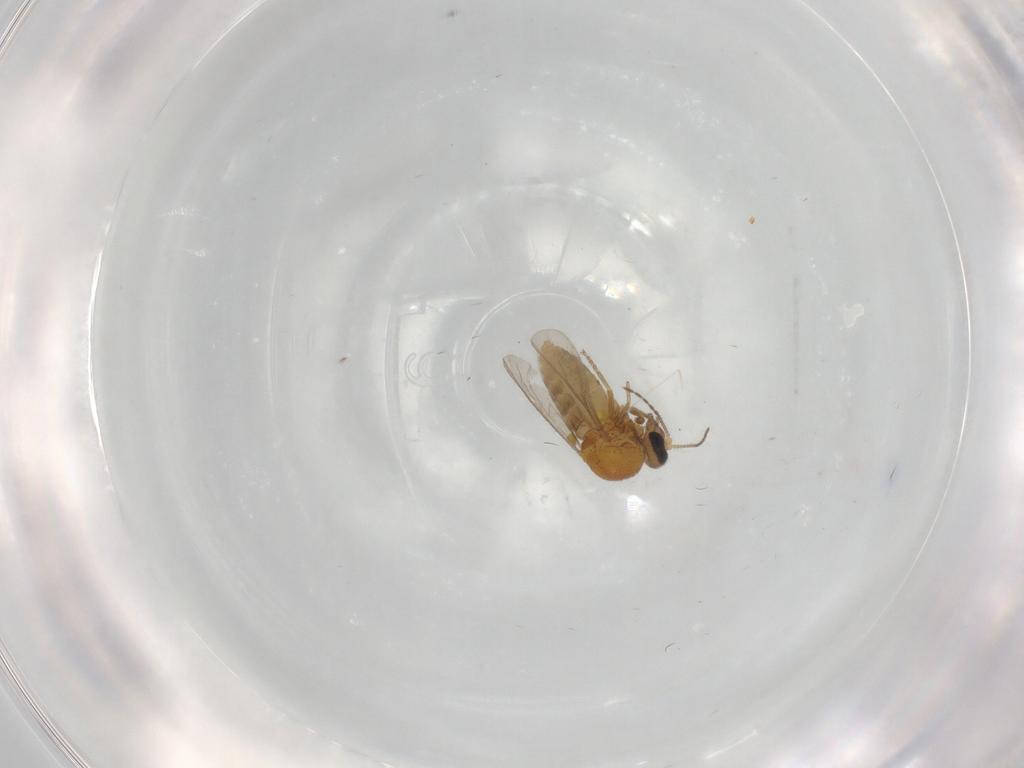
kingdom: Animalia
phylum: Arthropoda
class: Insecta
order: Diptera
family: Ceratopogonidae
